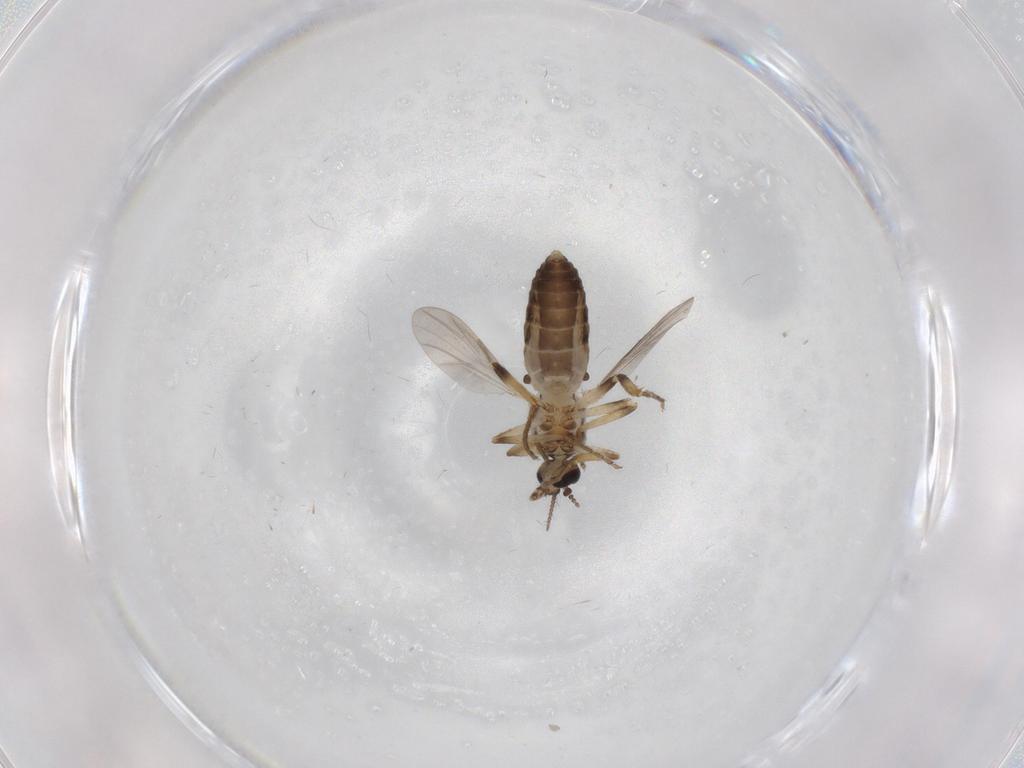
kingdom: Animalia
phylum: Arthropoda
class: Insecta
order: Diptera
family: Ceratopogonidae
